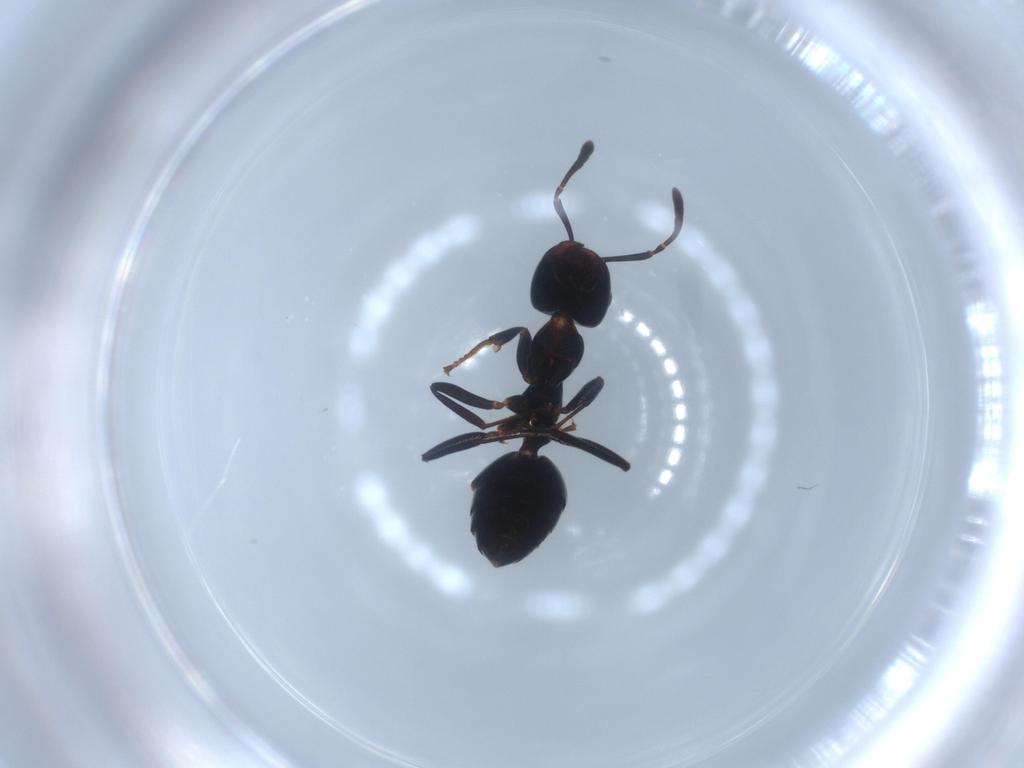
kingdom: Animalia
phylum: Arthropoda
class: Insecta
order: Hymenoptera
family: Formicidae
